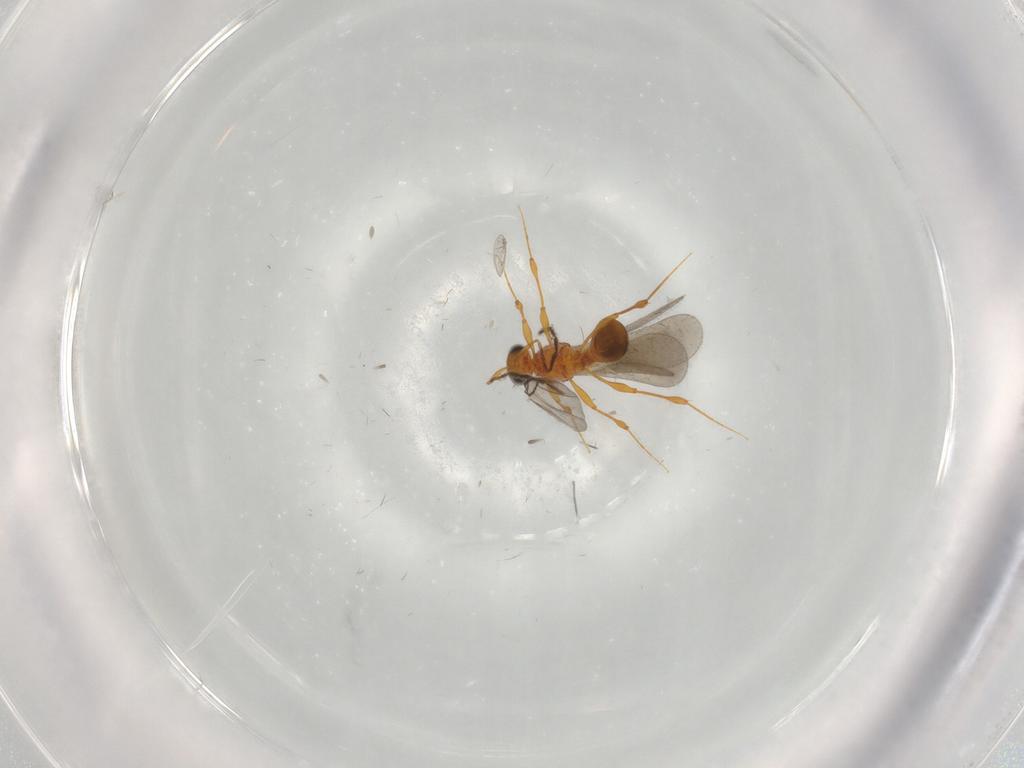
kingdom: Animalia
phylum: Arthropoda
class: Insecta
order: Hymenoptera
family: Platygastridae
